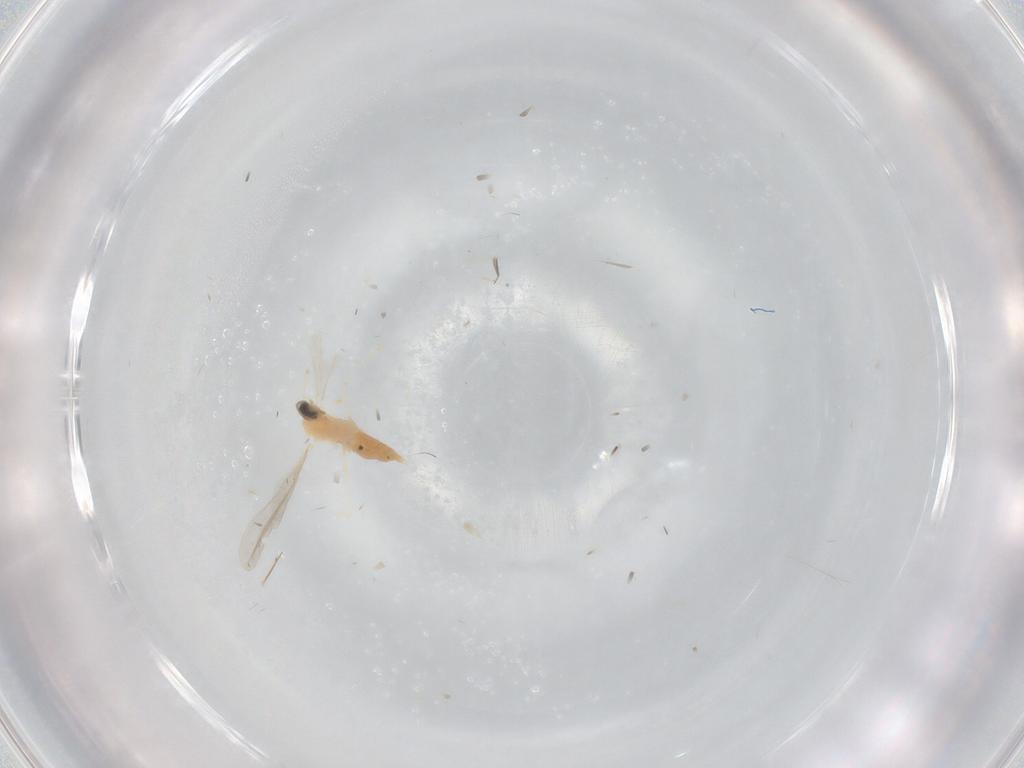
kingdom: Animalia
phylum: Arthropoda
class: Insecta
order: Diptera
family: Cecidomyiidae
